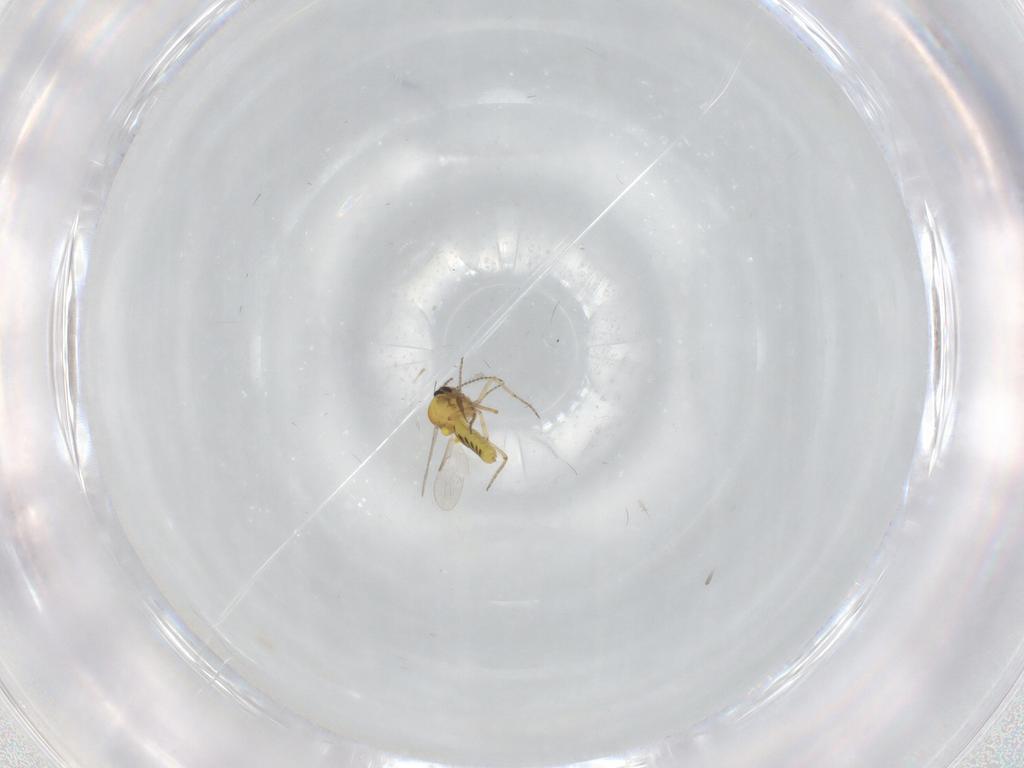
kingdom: Animalia
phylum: Arthropoda
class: Insecta
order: Diptera
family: Ceratopogonidae
